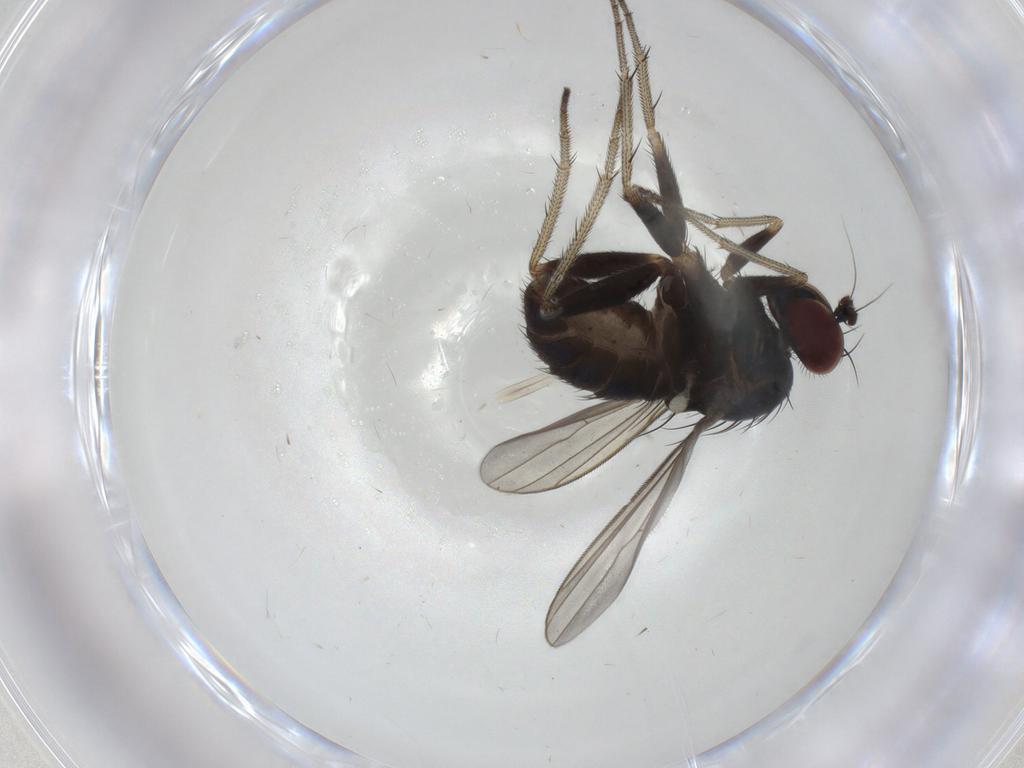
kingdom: Animalia
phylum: Arthropoda
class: Insecta
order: Diptera
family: Dolichopodidae
